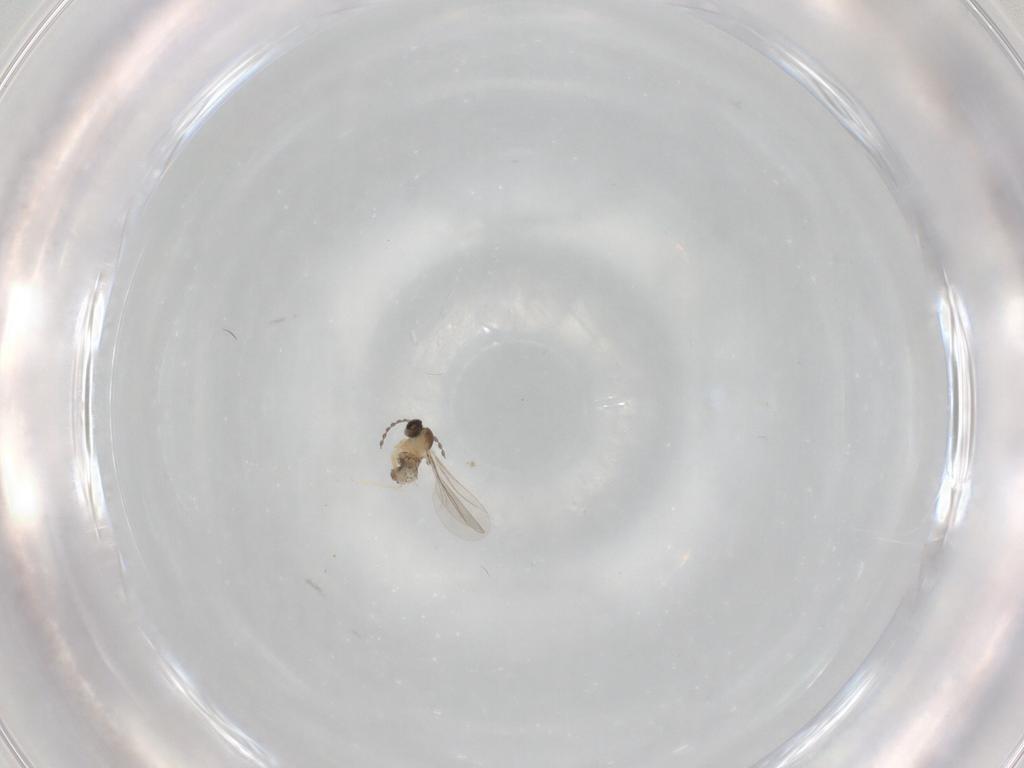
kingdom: Animalia
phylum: Arthropoda
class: Insecta
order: Diptera
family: Cecidomyiidae
